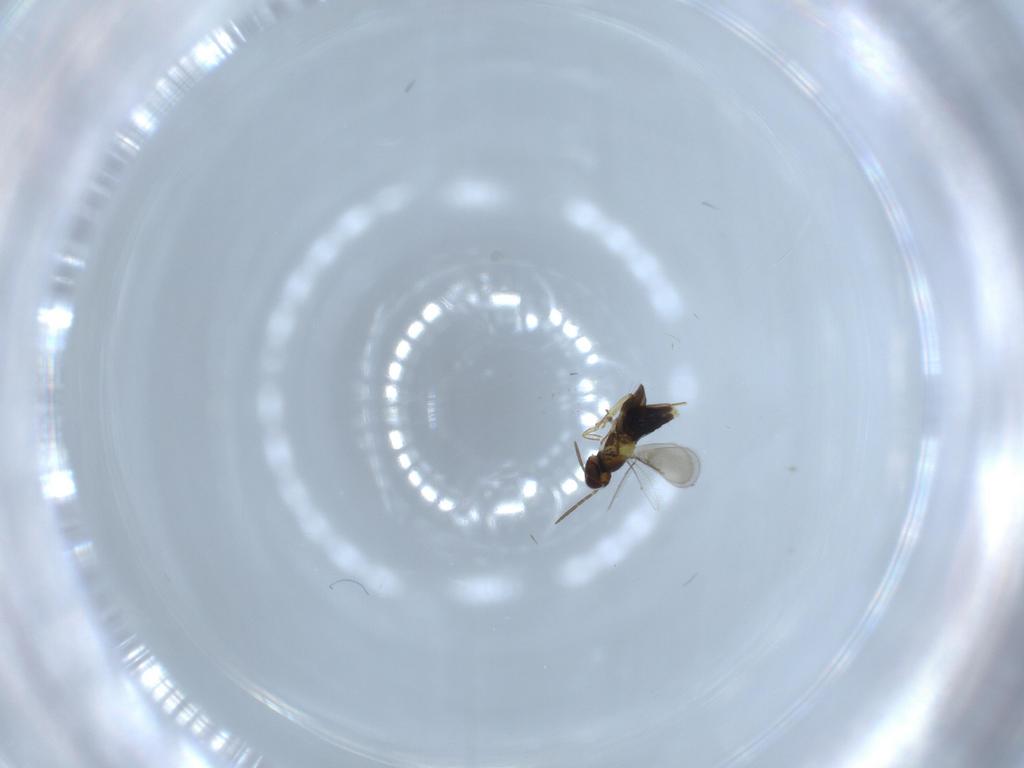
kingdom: Animalia
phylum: Arthropoda
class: Insecta
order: Hymenoptera
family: Aphelinidae
